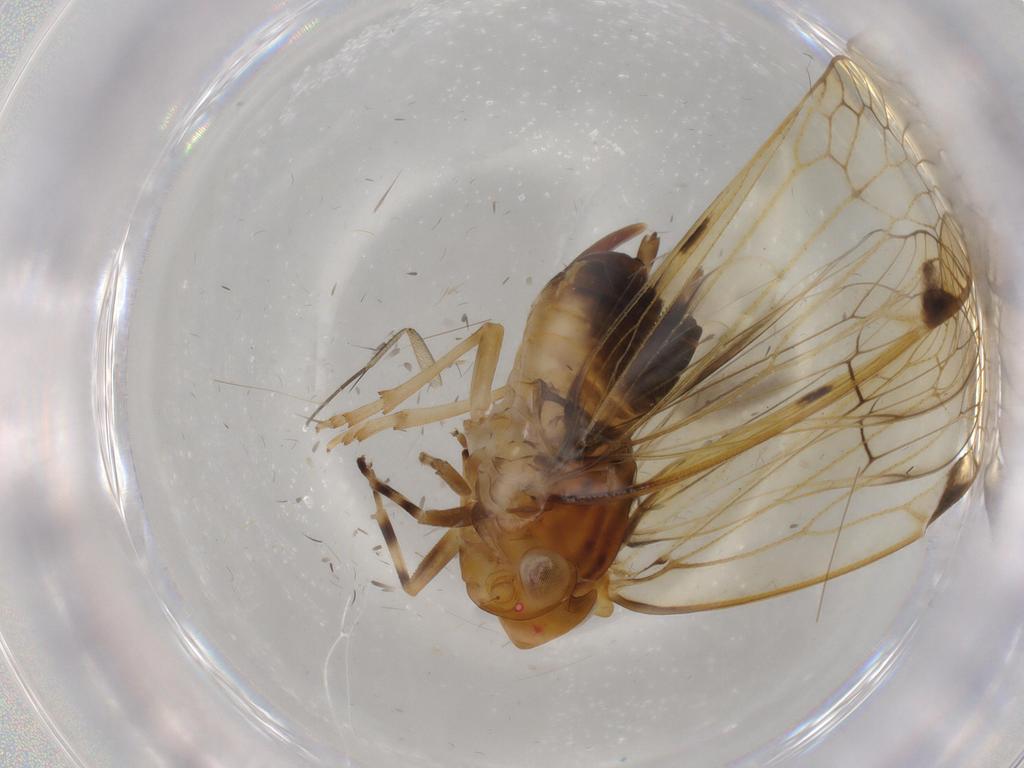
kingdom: Animalia
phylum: Arthropoda
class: Insecta
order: Hemiptera
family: Cixiidae
